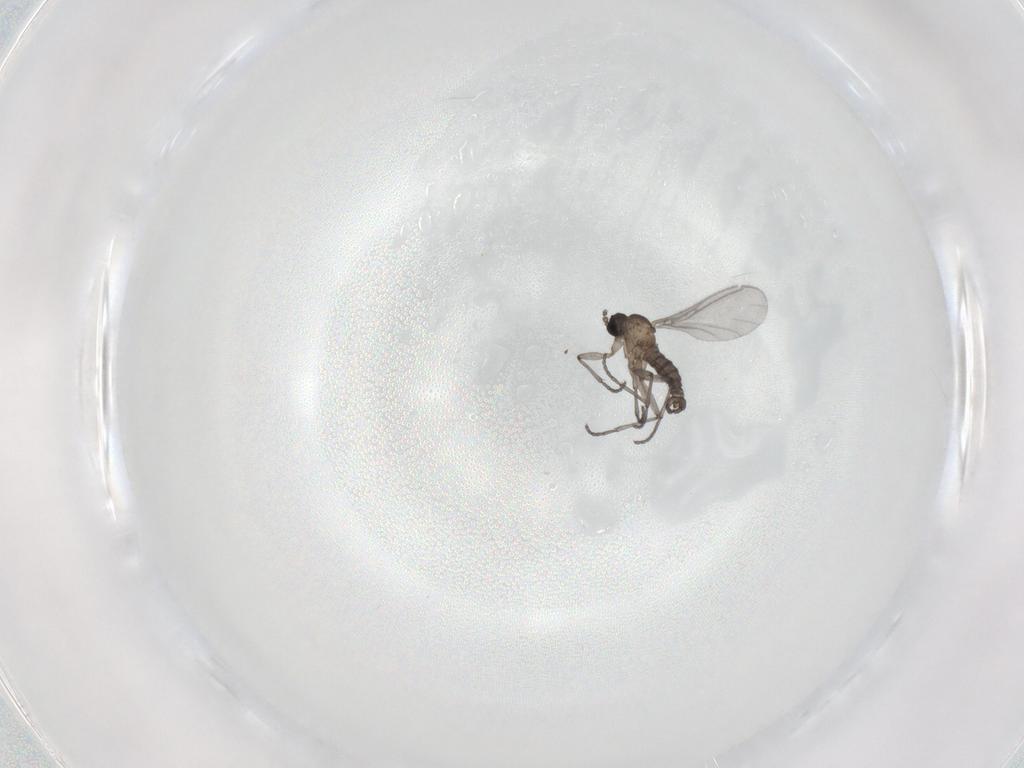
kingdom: Animalia
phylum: Arthropoda
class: Insecta
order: Diptera
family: Sciaridae
